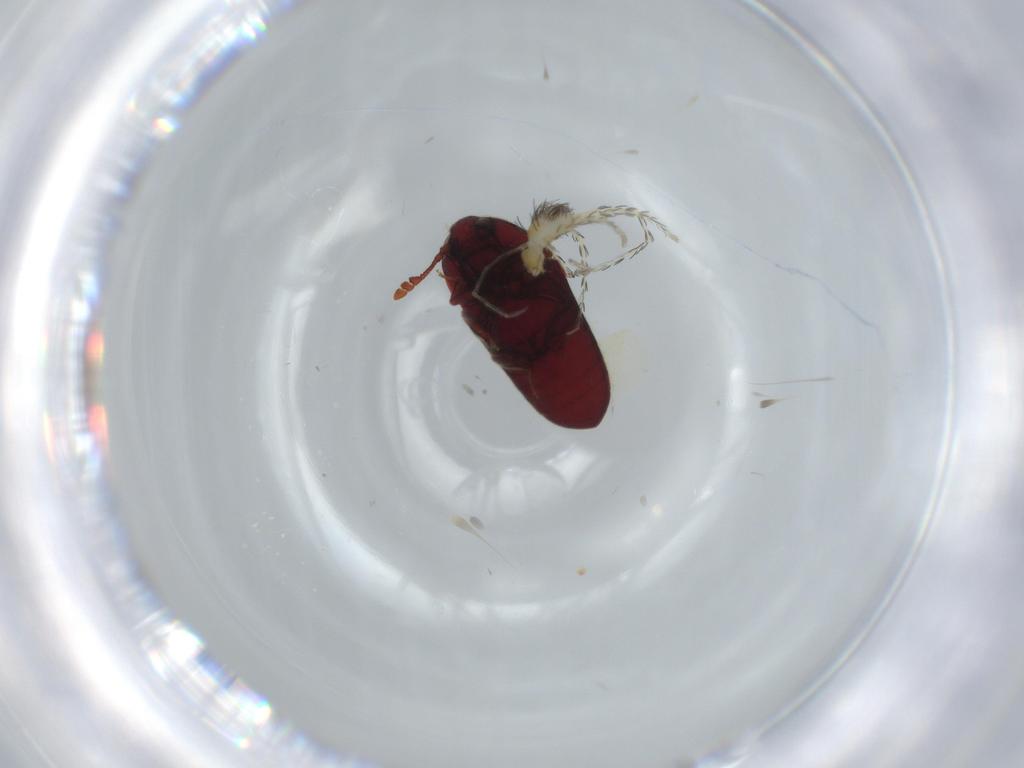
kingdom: Animalia
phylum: Arthropoda
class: Insecta
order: Coleoptera
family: Throscidae
